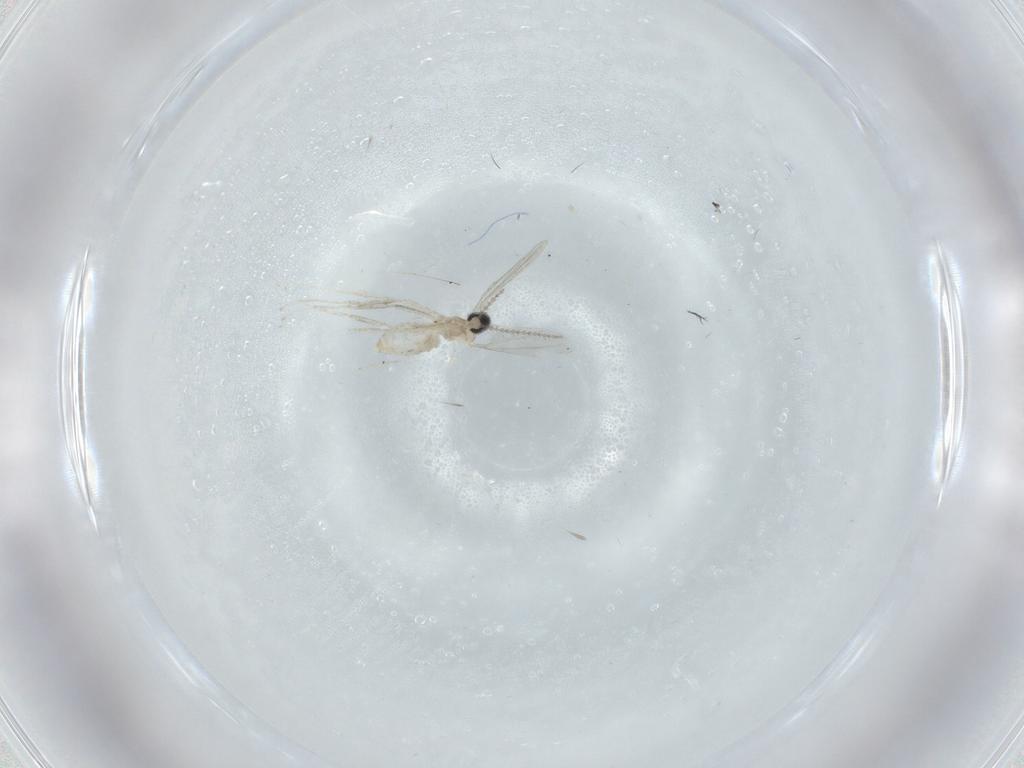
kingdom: Animalia
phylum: Arthropoda
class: Insecta
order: Diptera
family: Cecidomyiidae
